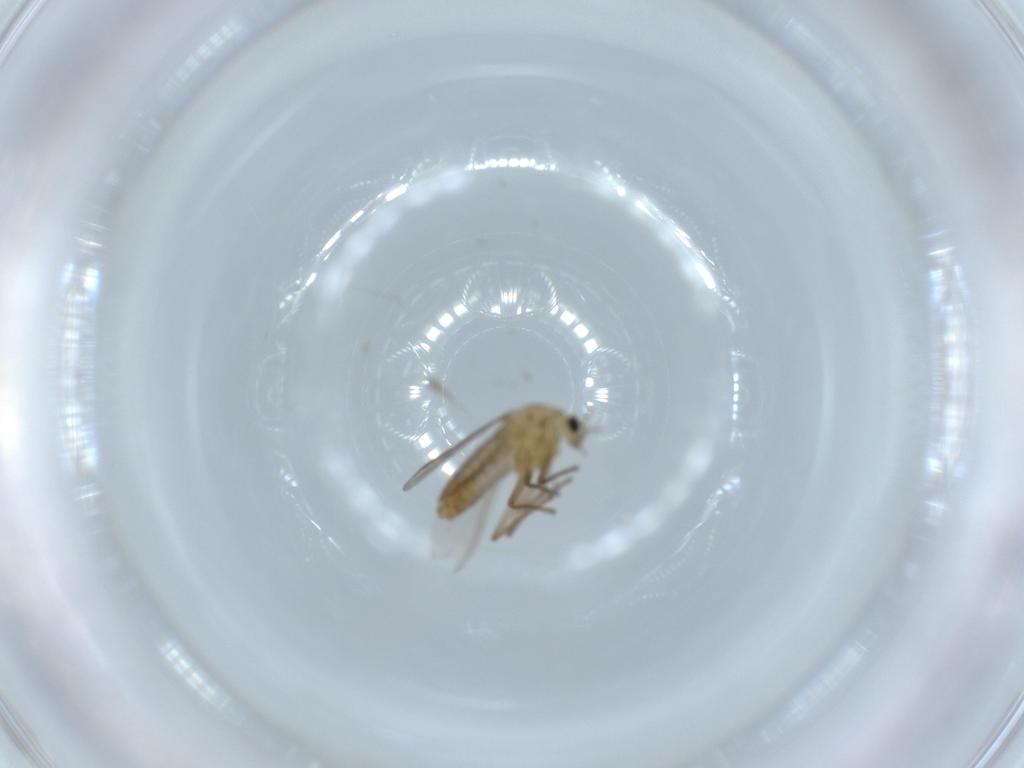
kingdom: Animalia
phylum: Arthropoda
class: Insecta
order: Diptera
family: Chironomidae
